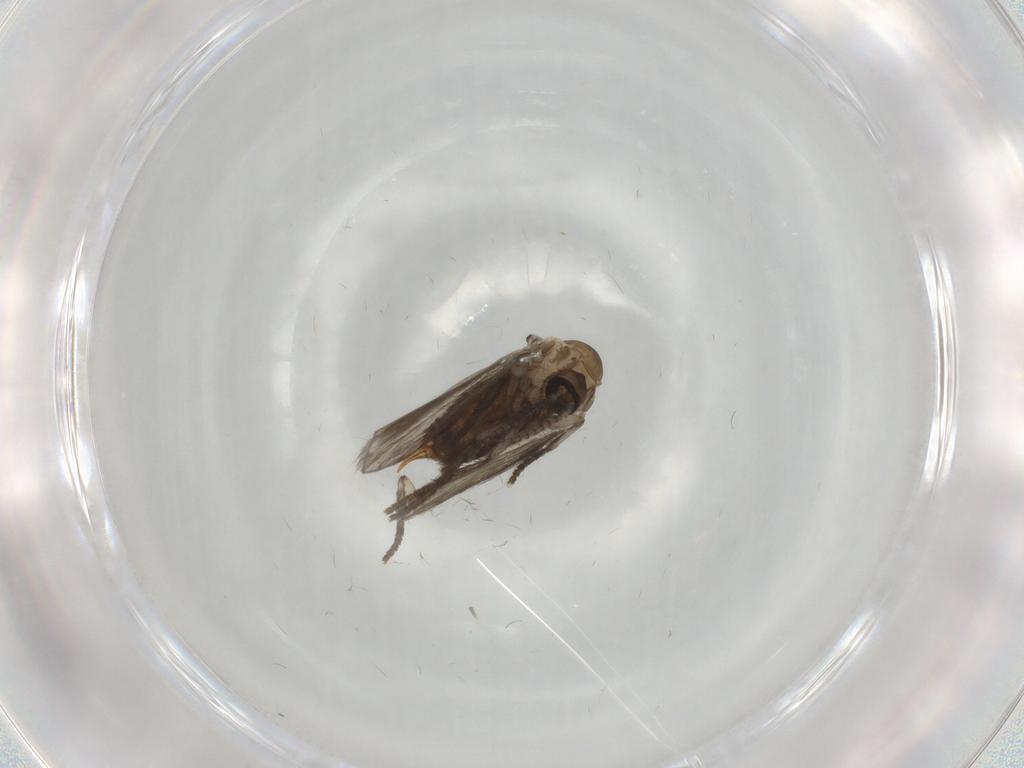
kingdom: Animalia
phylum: Arthropoda
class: Insecta
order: Diptera
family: Psychodidae
